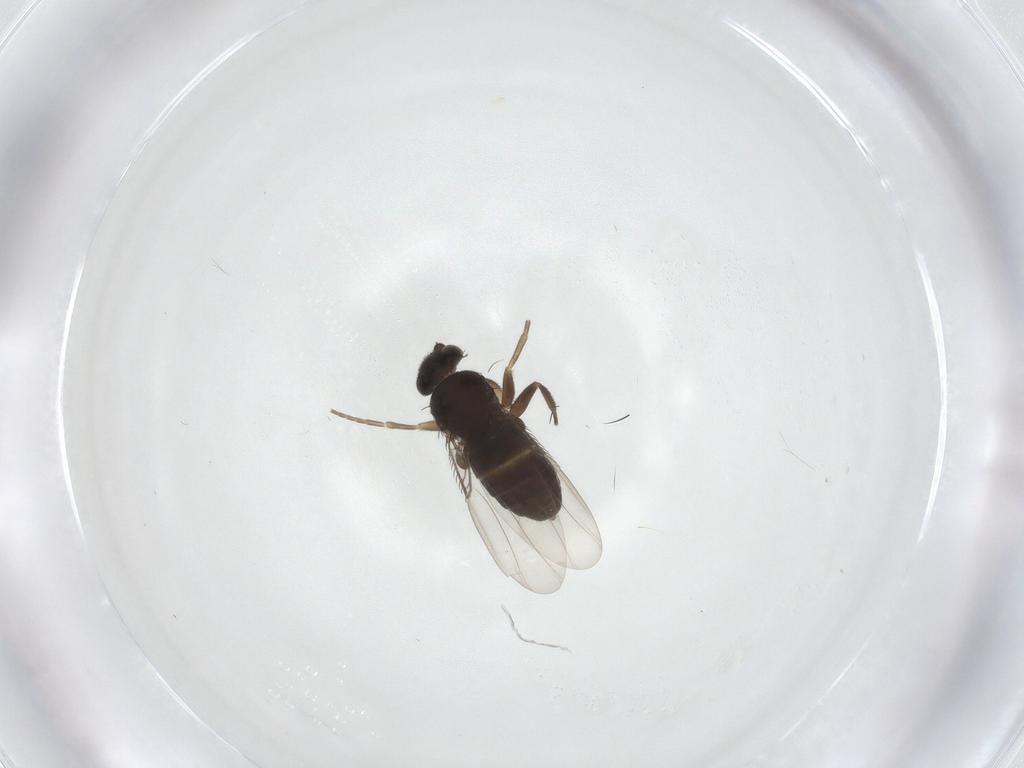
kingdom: Animalia
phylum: Arthropoda
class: Insecta
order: Diptera
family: Phoridae
